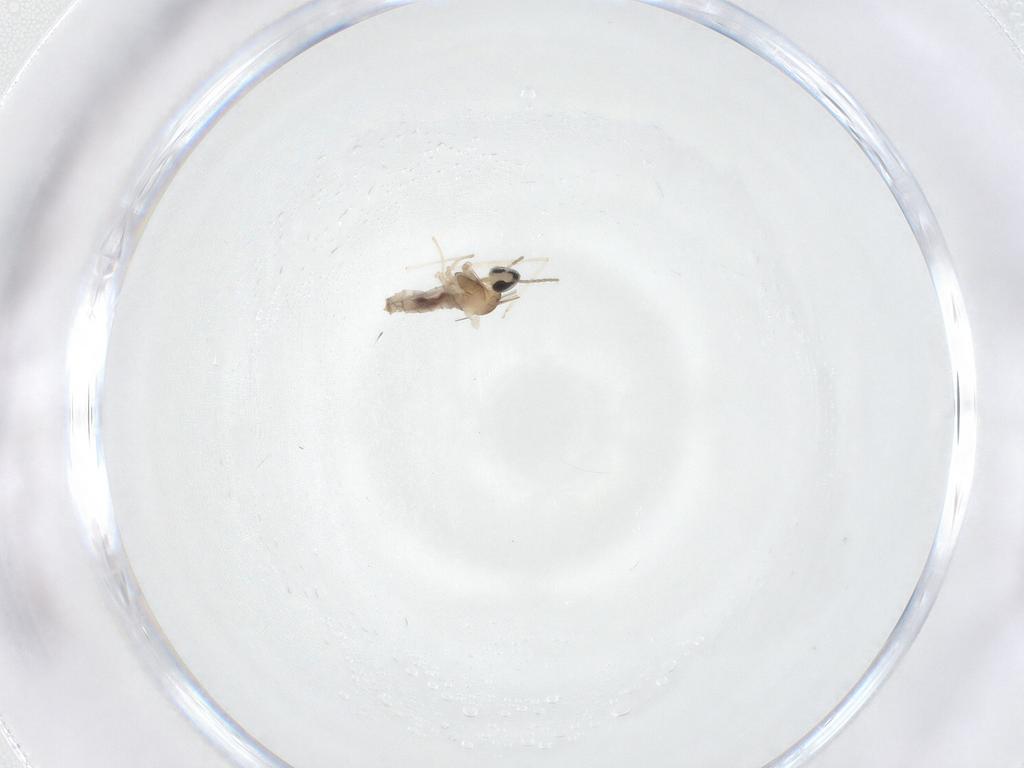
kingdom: Animalia
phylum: Arthropoda
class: Insecta
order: Diptera
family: Cecidomyiidae
